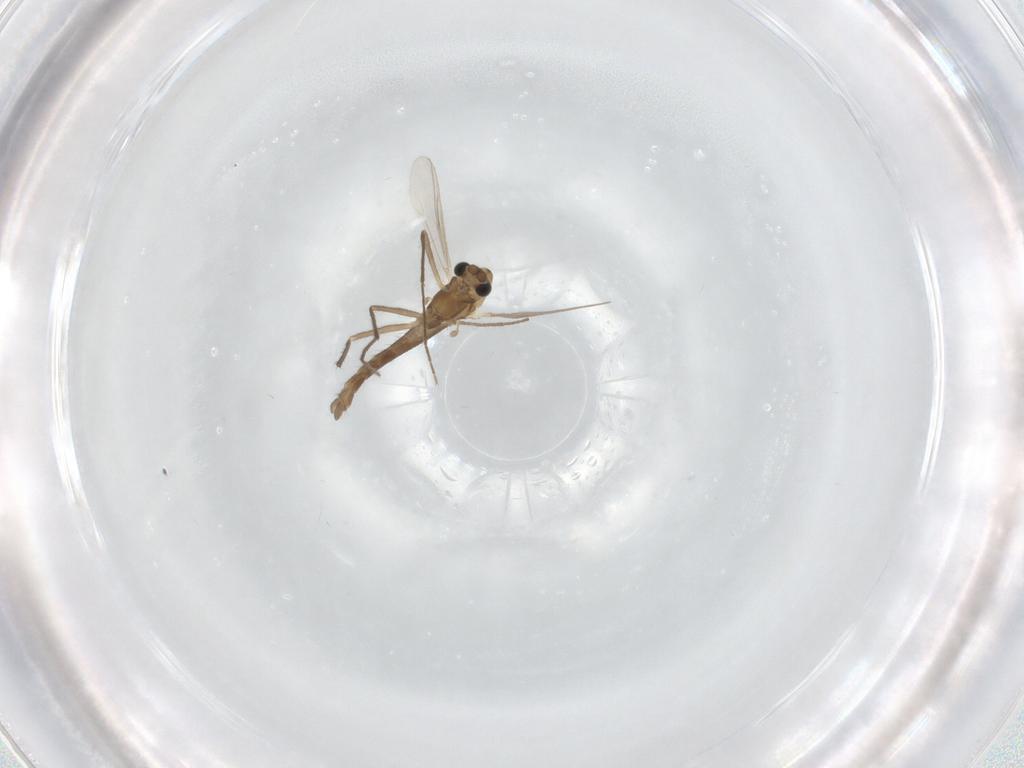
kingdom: Animalia
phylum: Arthropoda
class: Insecta
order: Diptera
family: Chironomidae
